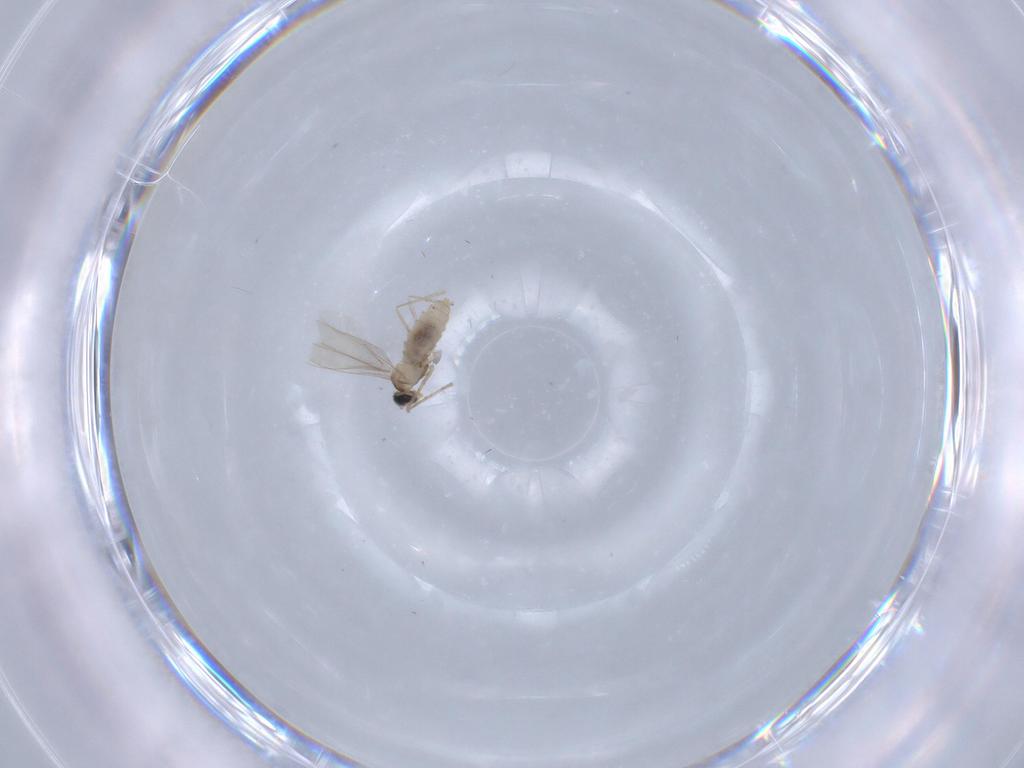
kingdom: Animalia
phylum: Arthropoda
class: Insecta
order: Diptera
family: Cecidomyiidae
